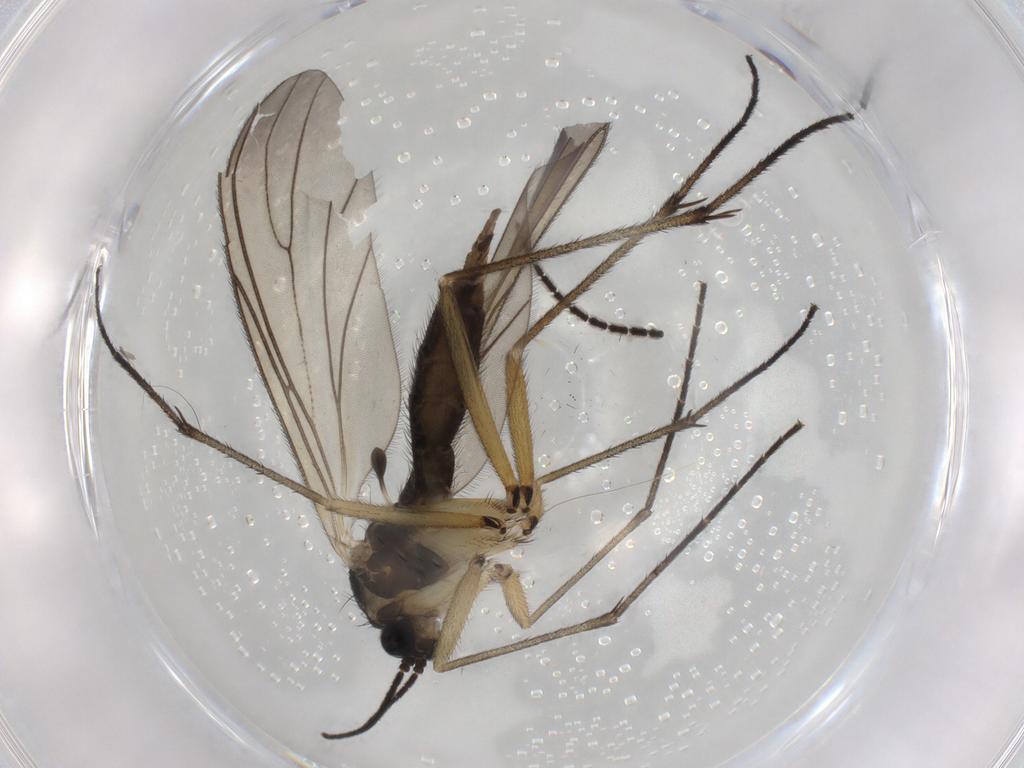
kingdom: Animalia
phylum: Arthropoda
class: Insecta
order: Diptera
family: Sciaridae
